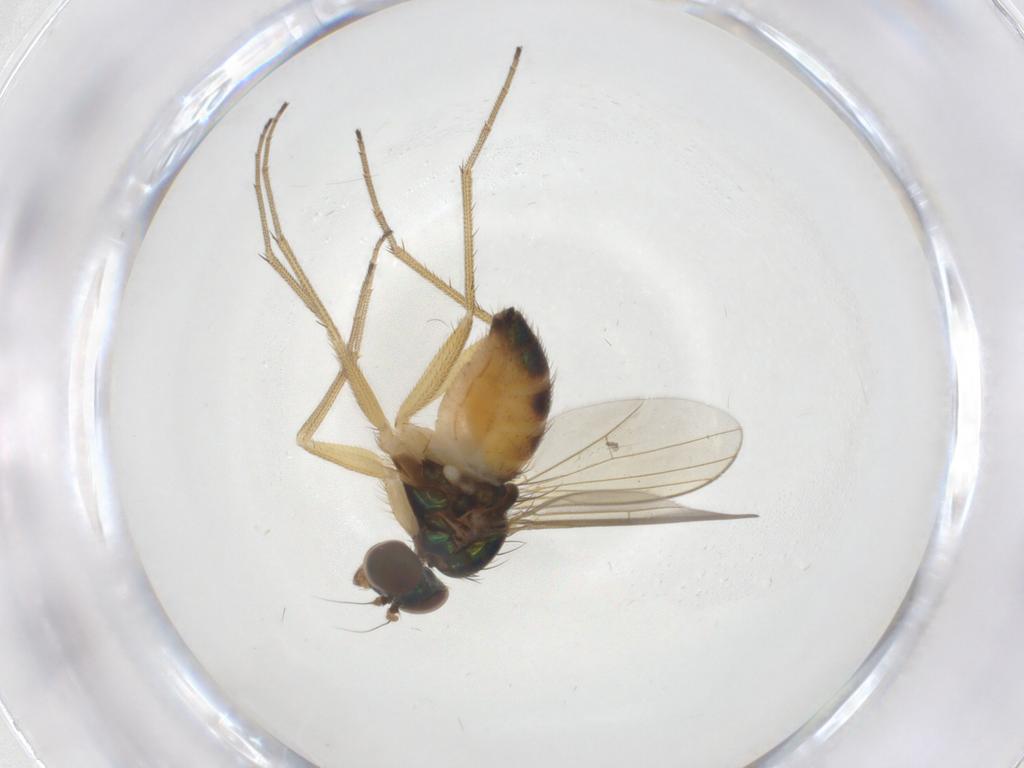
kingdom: Animalia
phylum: Arthropoda
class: Insecta
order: Diptera
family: Dolichopodidae
